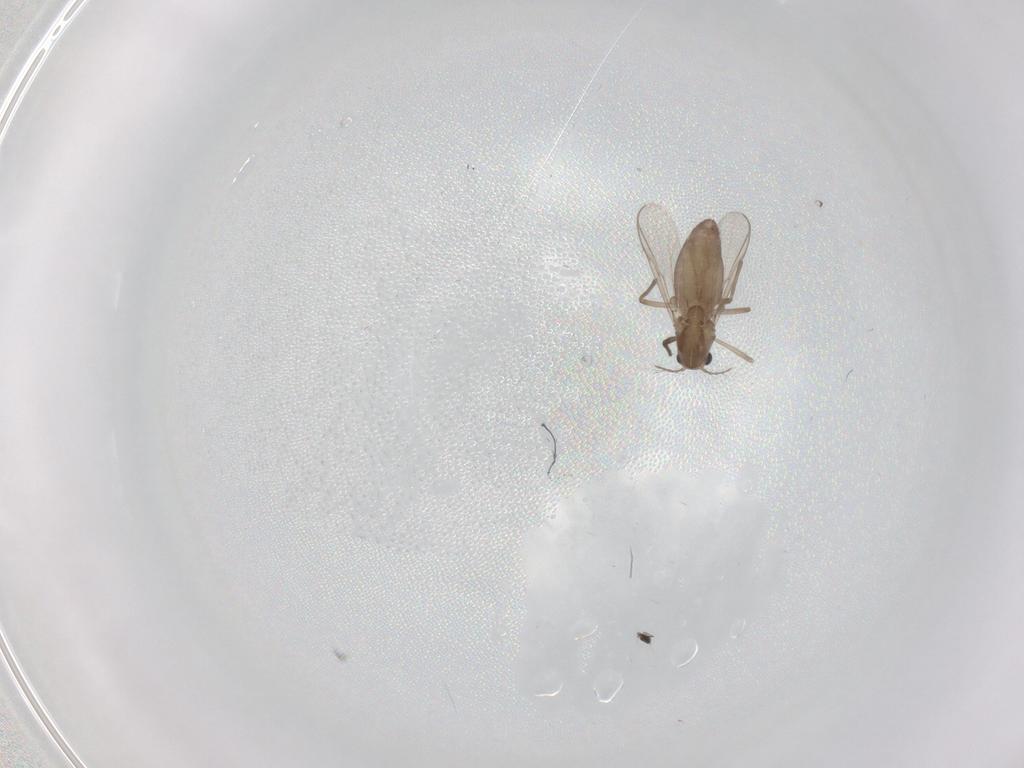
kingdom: Animalia
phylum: Arthropoda
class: Insecta
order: Diptera
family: Chironomidae
